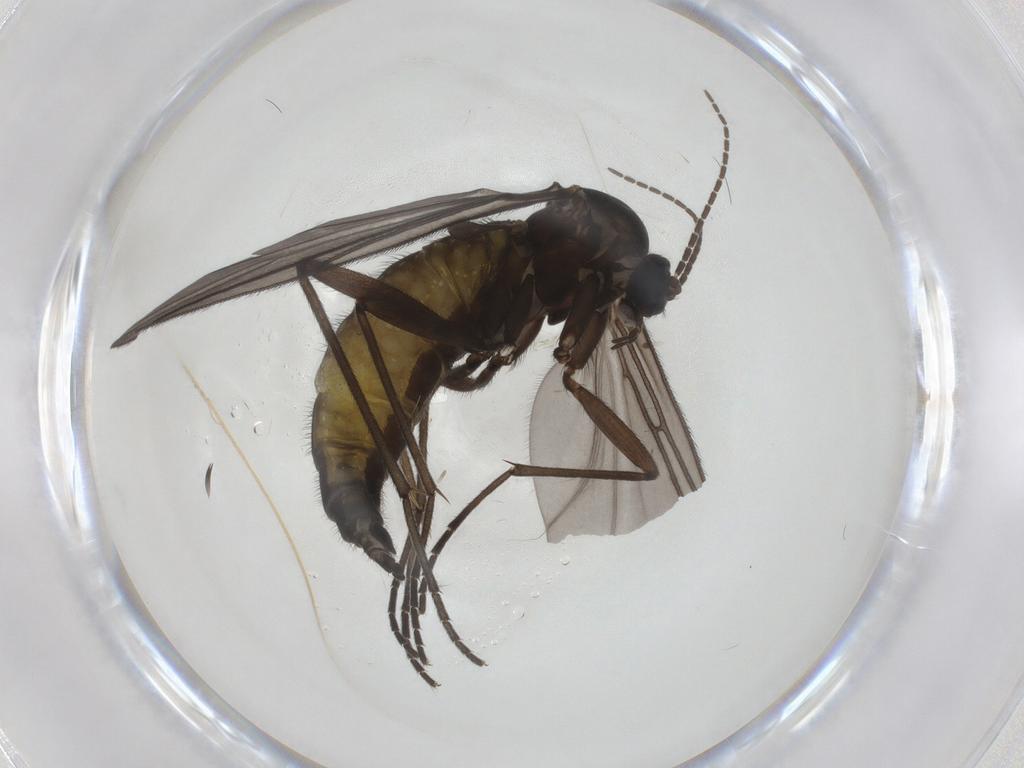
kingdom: Animalia
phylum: Arthropoda
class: Insecta
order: Diptera
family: Sciaridae
